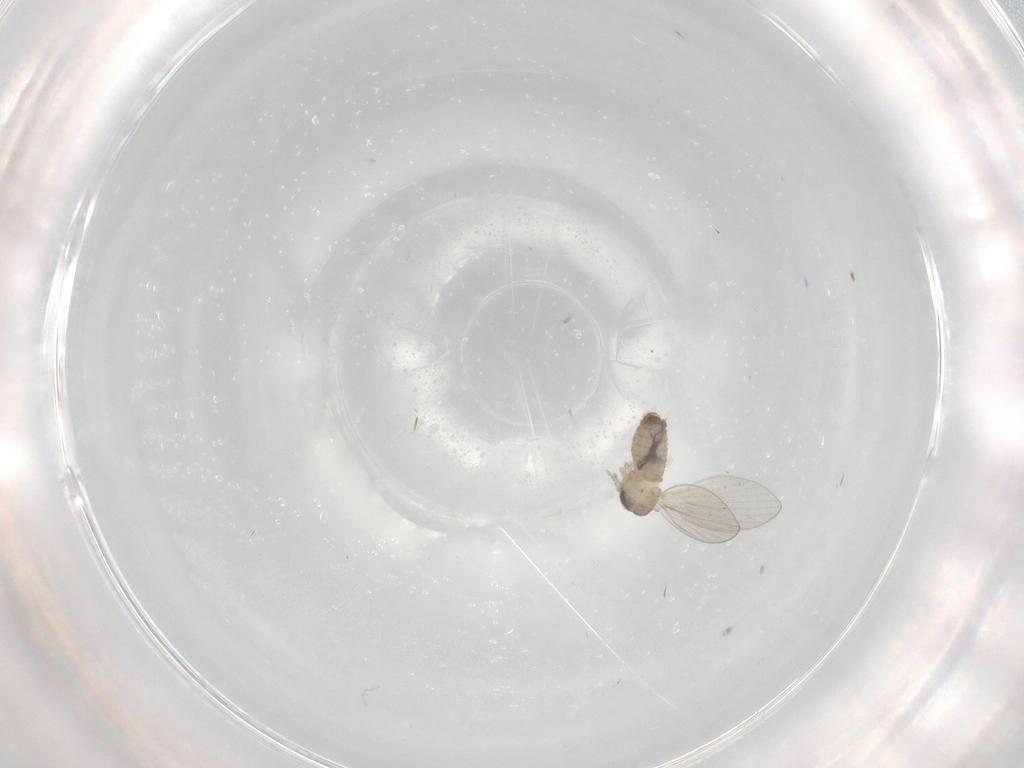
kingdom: Animalia
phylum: Arthropoda
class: Insecta
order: Diptera
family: Psychodidae
